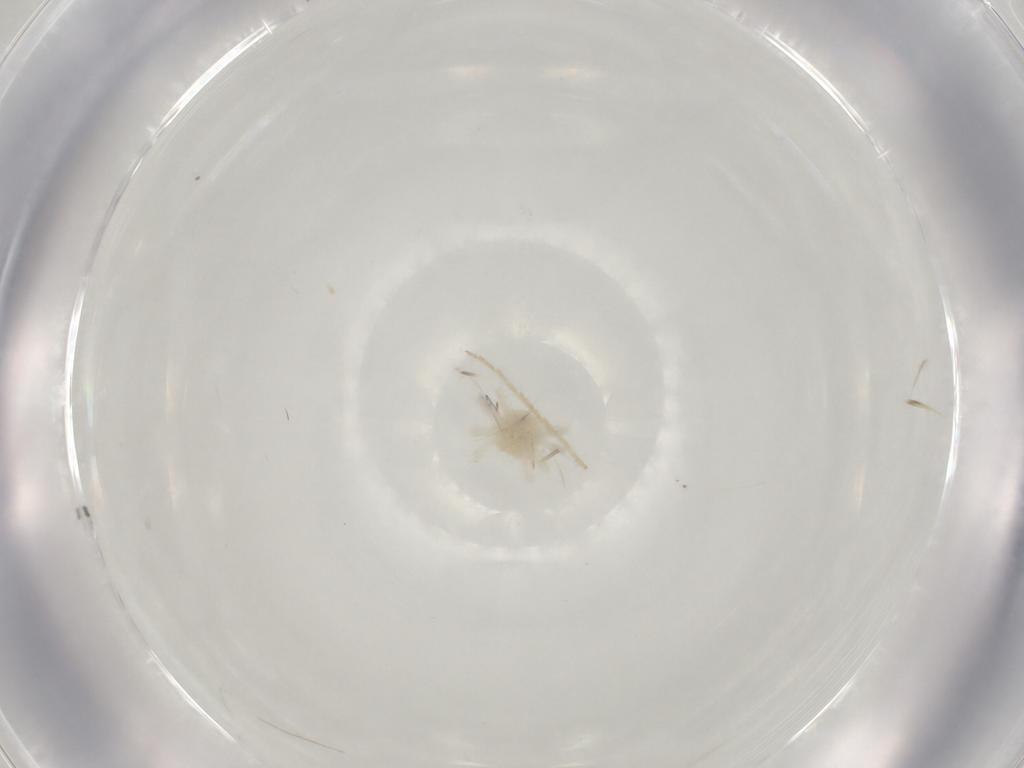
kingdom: Animalia
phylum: Arthropoda
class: Arachnida
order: Trombidiformes
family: Anystidae
